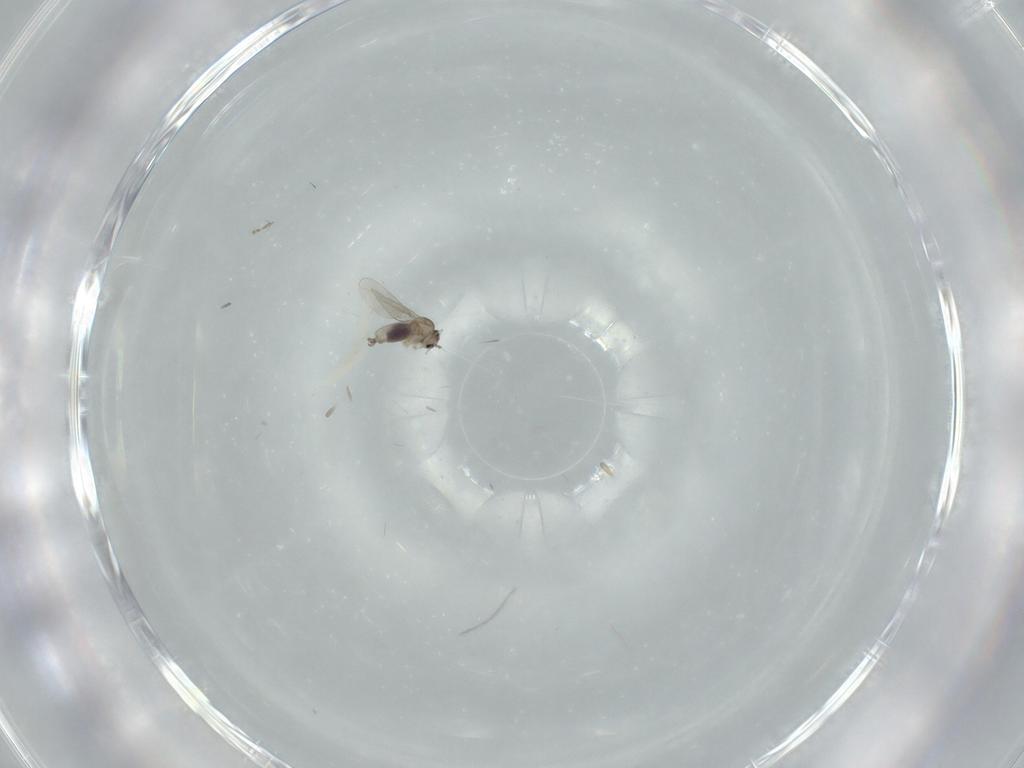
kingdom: Animalia
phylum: Arthropoda
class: Insecta
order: Diptera
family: Cecidomyiidae
